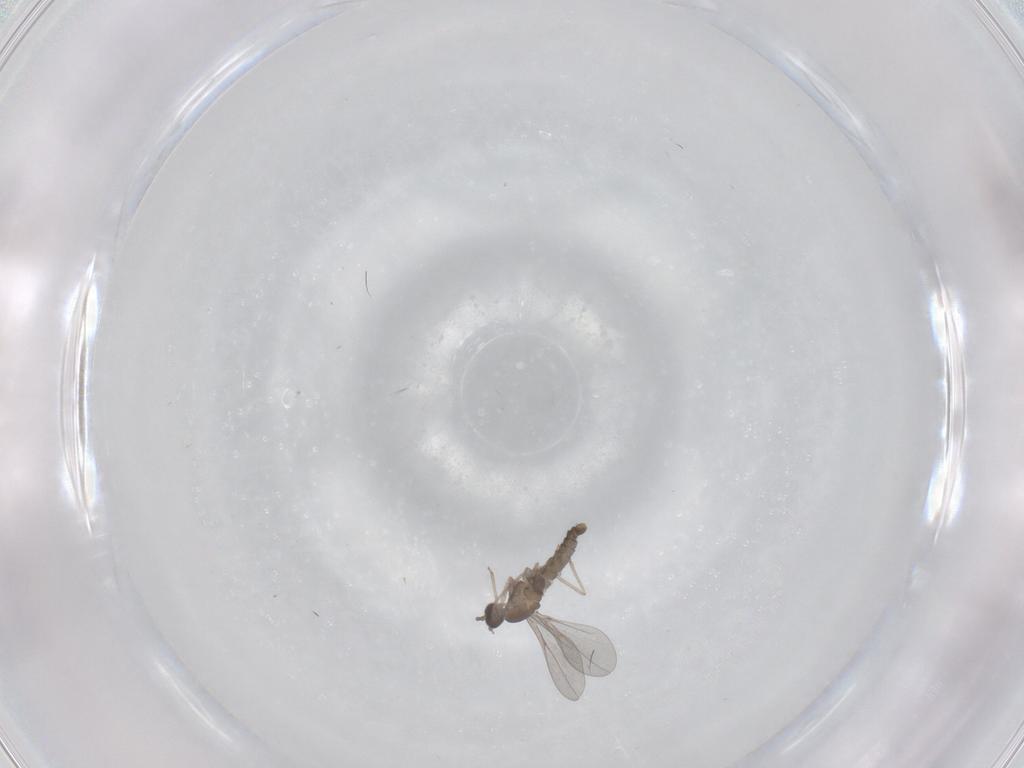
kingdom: Animalia
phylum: Arthropoda
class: Insecta
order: Diptera
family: Cecidomyiidae
